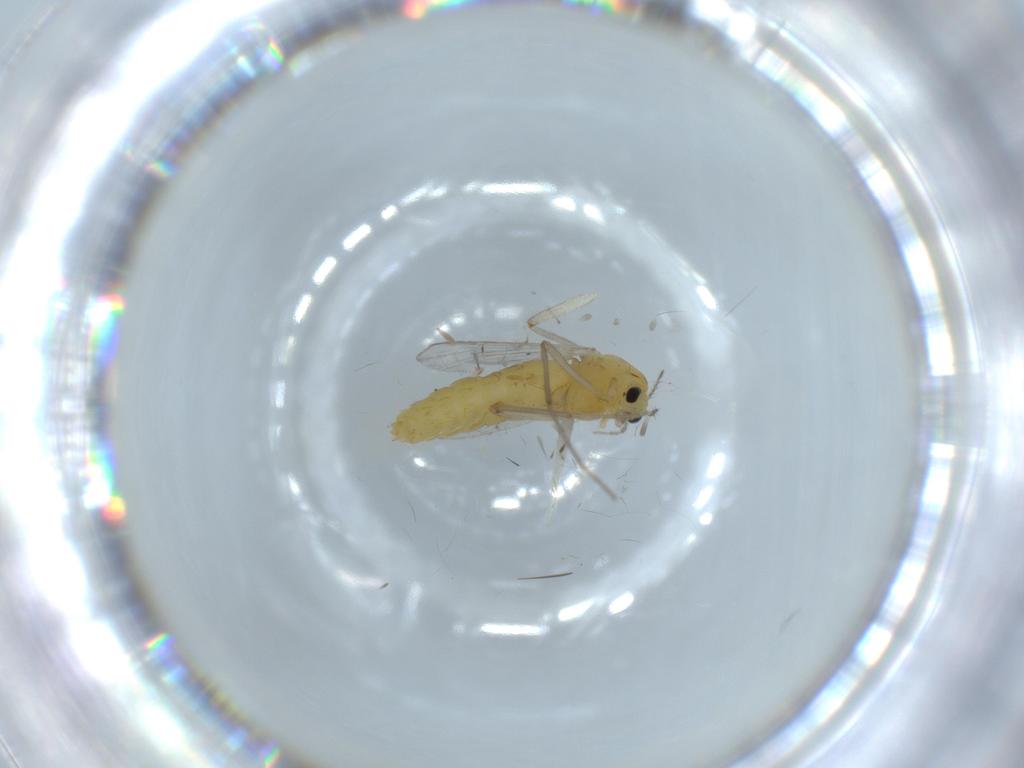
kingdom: Animalia
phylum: Arthropoda
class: Insecta
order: Diptera
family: Chironomidae
